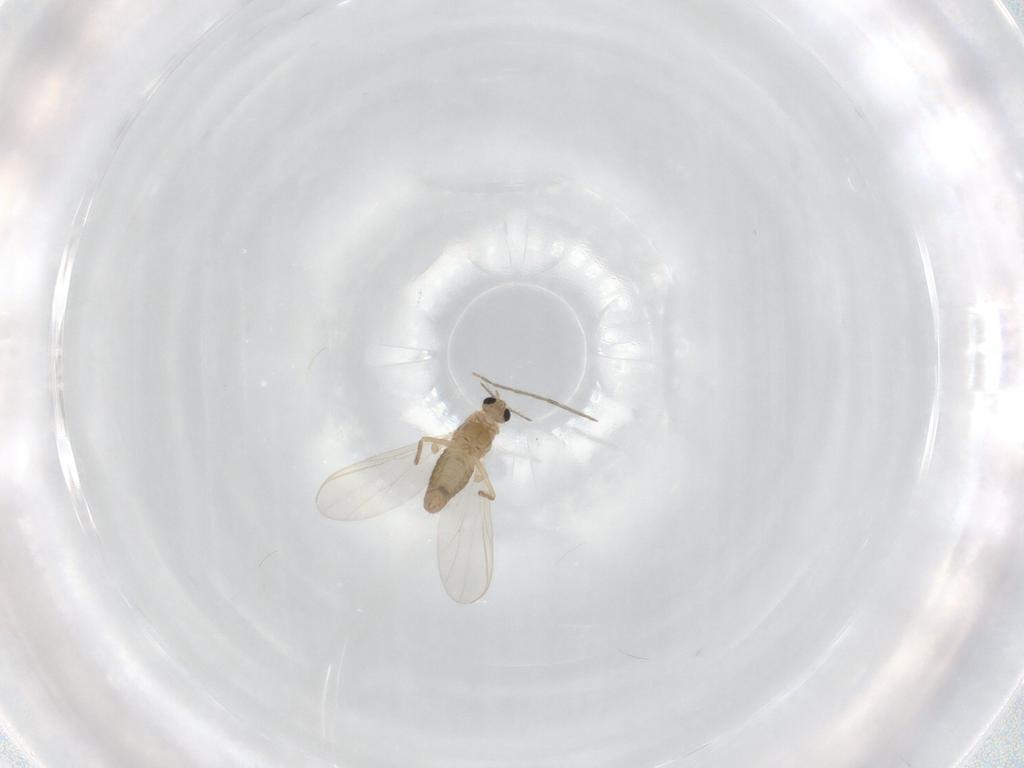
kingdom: Animalia
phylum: Arthropoda
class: Insecta
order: Diptera
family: Chironomidae
